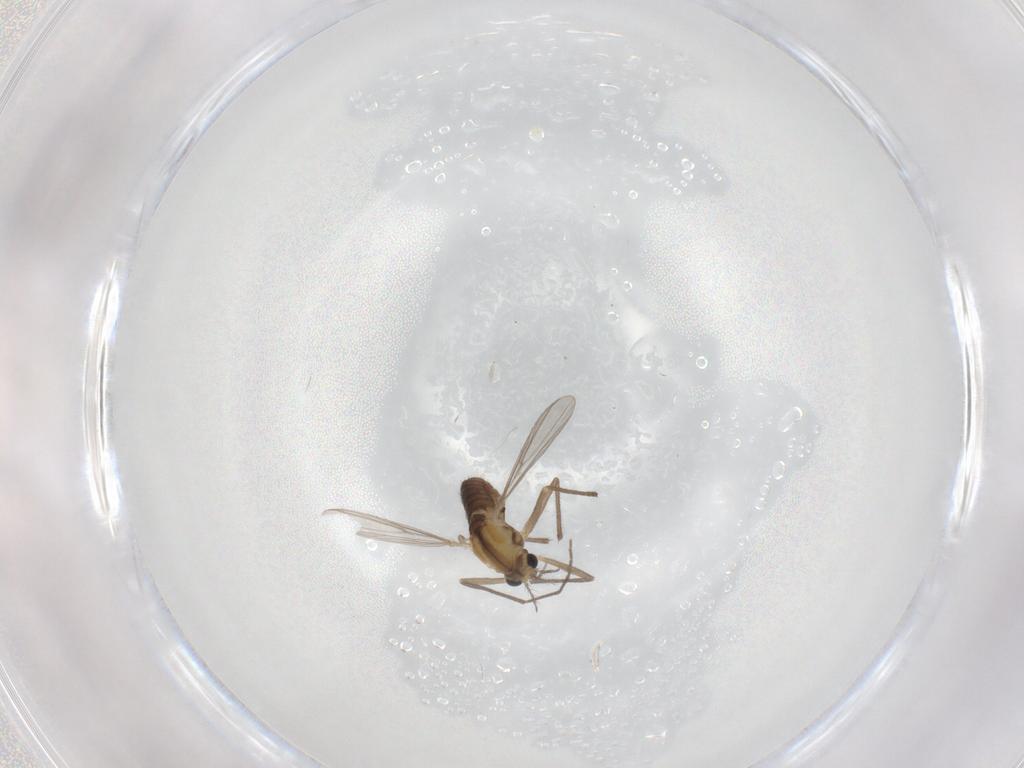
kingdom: Animalia
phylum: Arthropoda
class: Insecta
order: Diptera
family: Chironomidae
